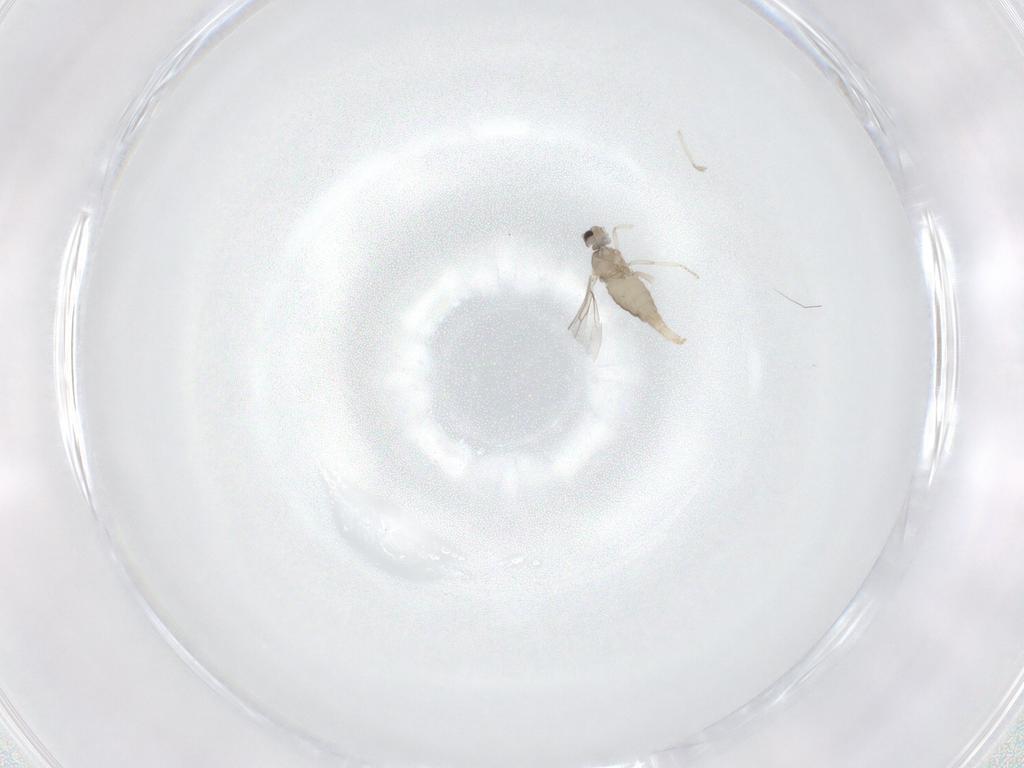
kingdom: Animalia
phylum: Arthropoda
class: Insecta
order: Diptera
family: Cecidomyiidae
